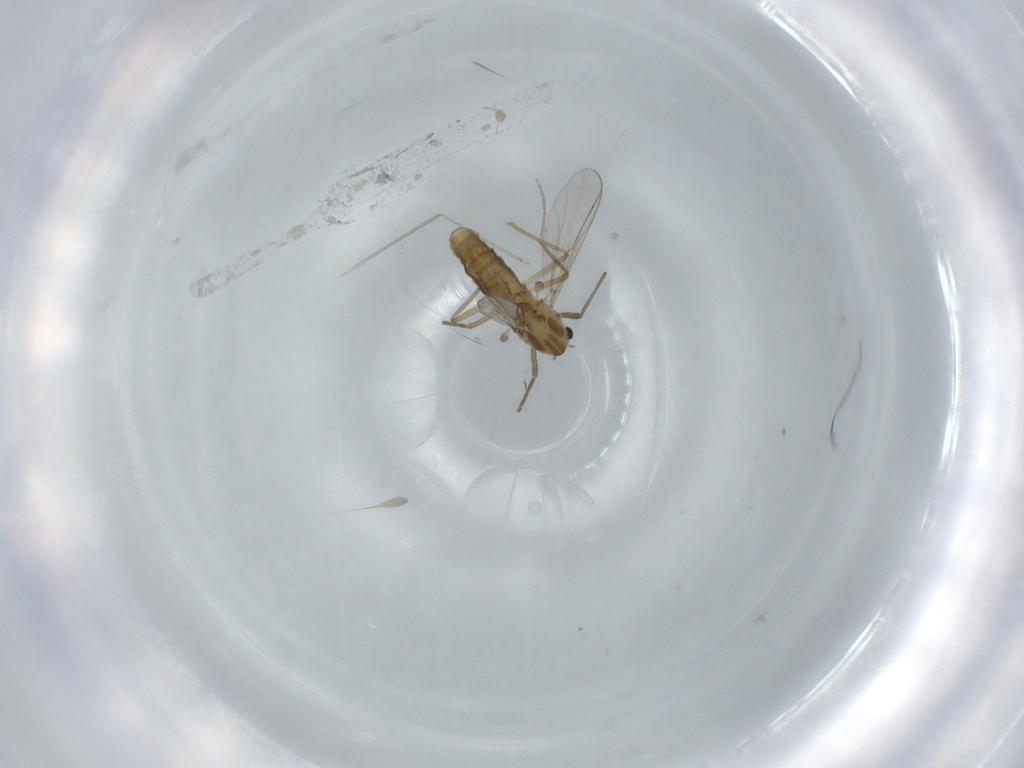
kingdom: Animalia
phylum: Arthropoda
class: Insecta
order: Diptera
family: Chironomidae
